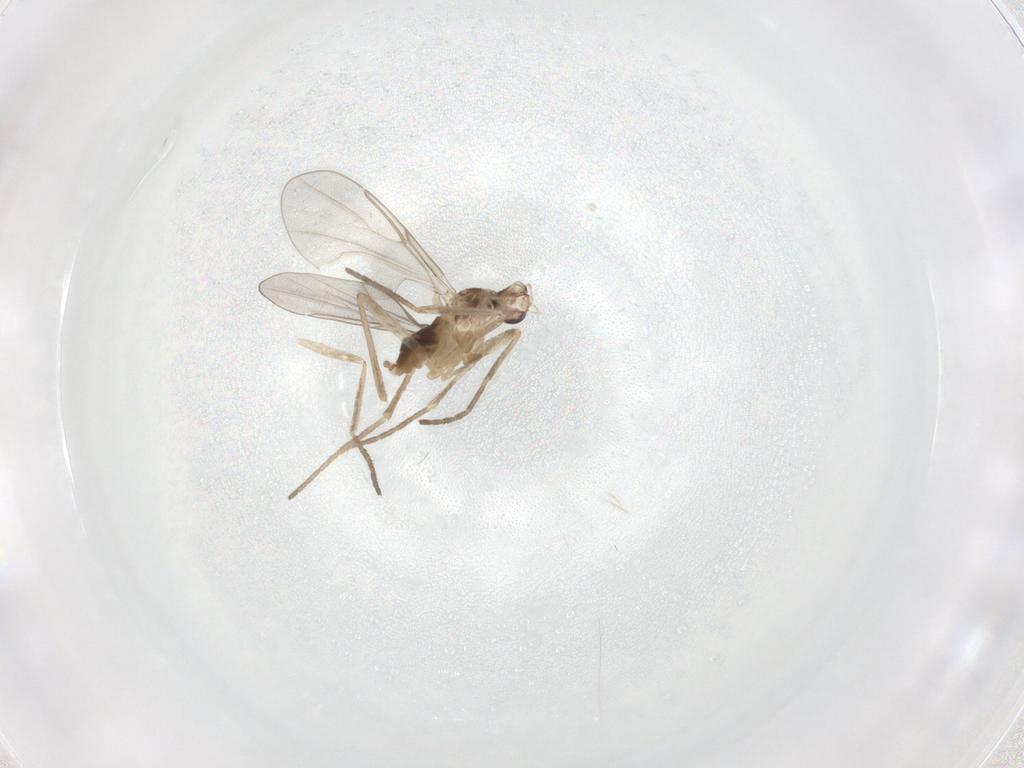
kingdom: Animalia
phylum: Arthropoda
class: Insecta
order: Diptera
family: Cecidomyiidae
